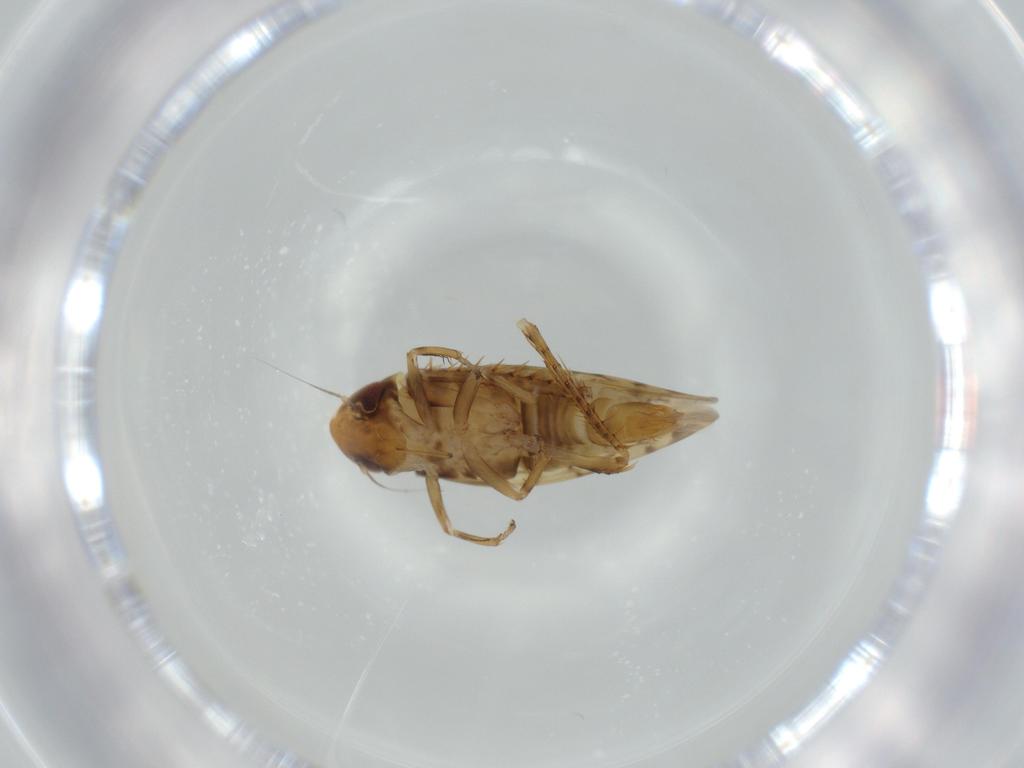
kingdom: Animalia
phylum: Arthropoda
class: Insecta
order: Hemiptera
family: Cicadellidae
